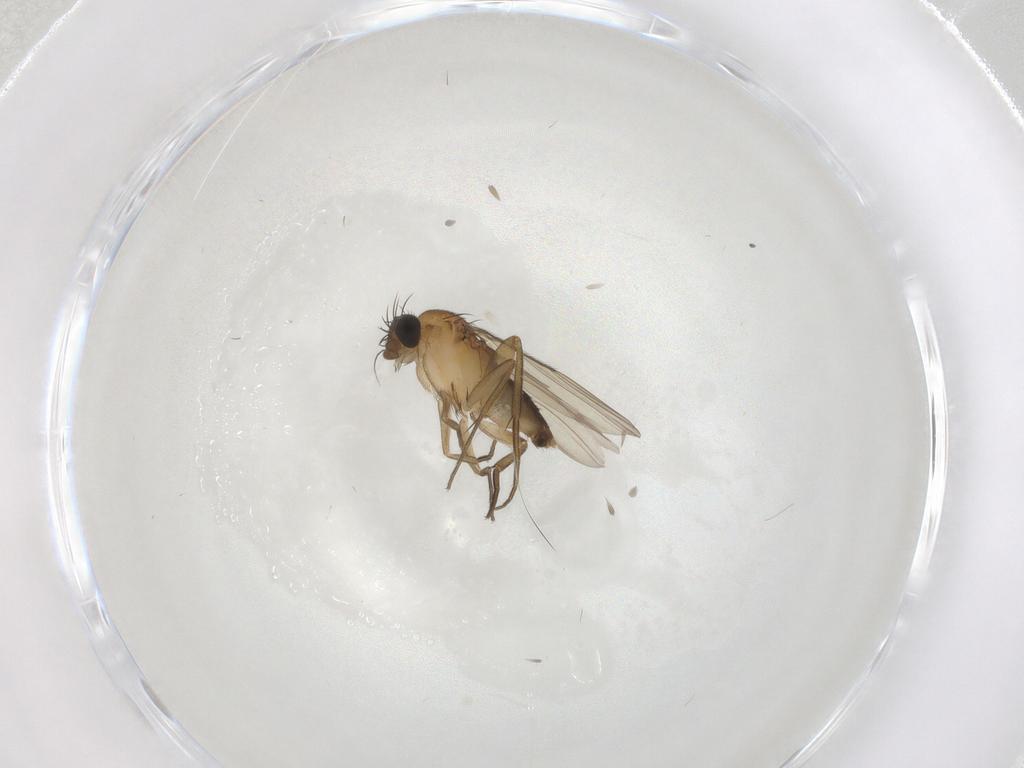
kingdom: Animalia
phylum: Arthropoda
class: Insecta
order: Diptera
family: Phoridae
